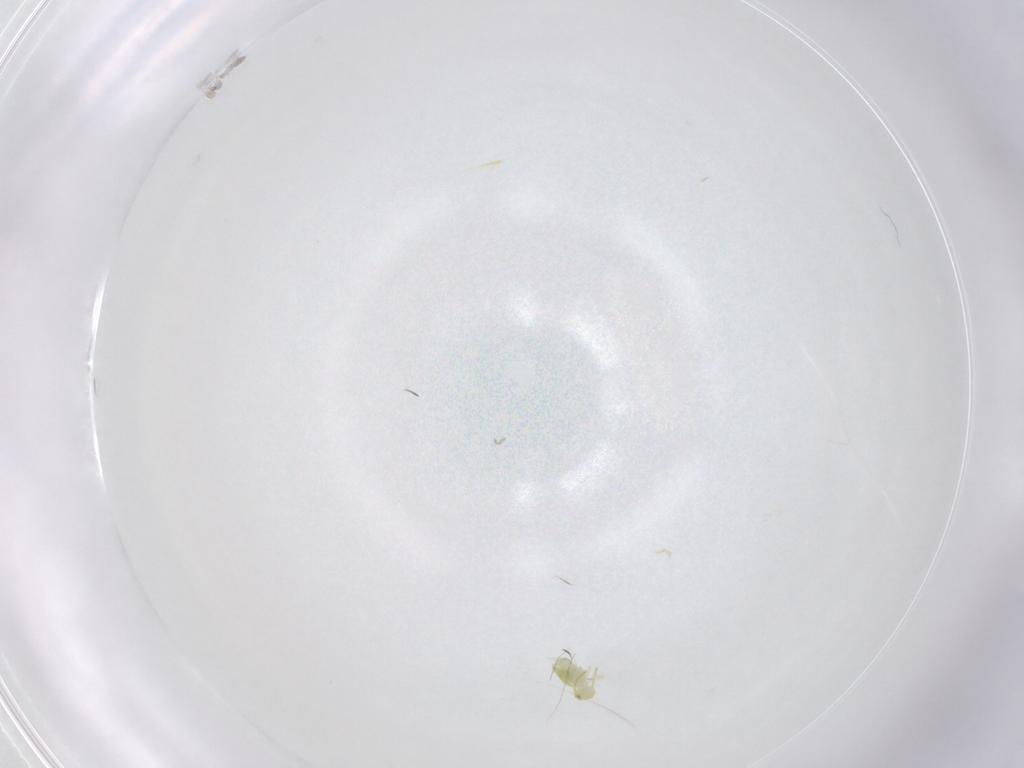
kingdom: Animalia
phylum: Arthropoda
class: Collembola
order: Symphypleona
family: Katiannidae
